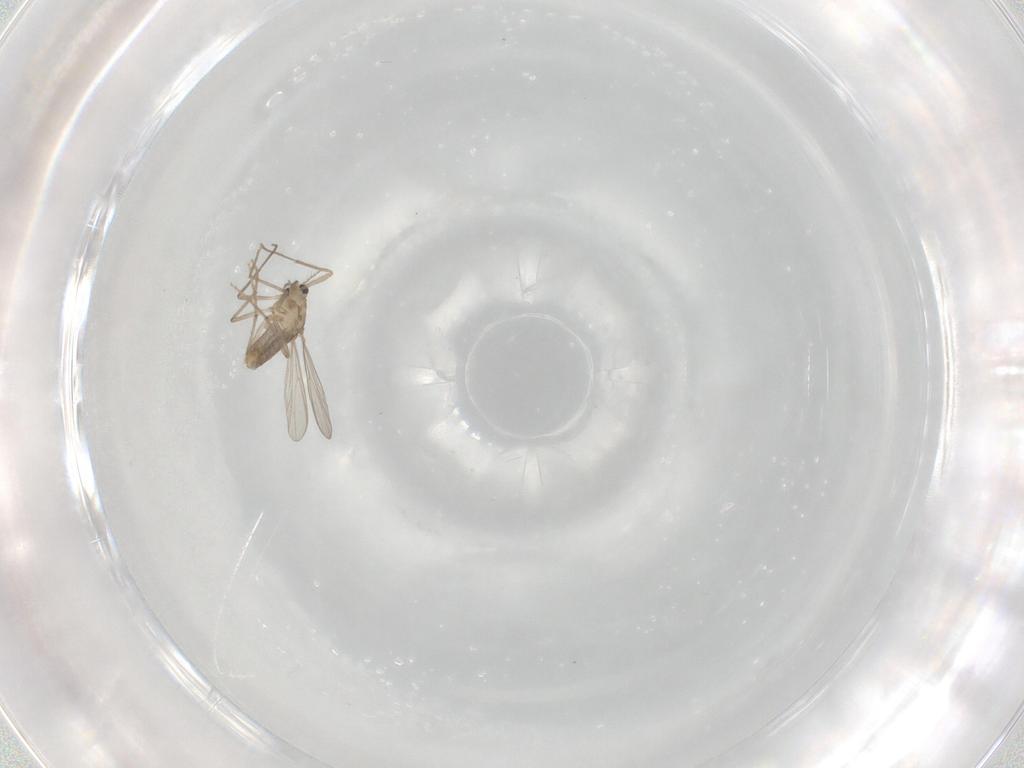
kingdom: Animalia
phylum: Arthropoda
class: Insecta
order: Diptera
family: Chironomidae
